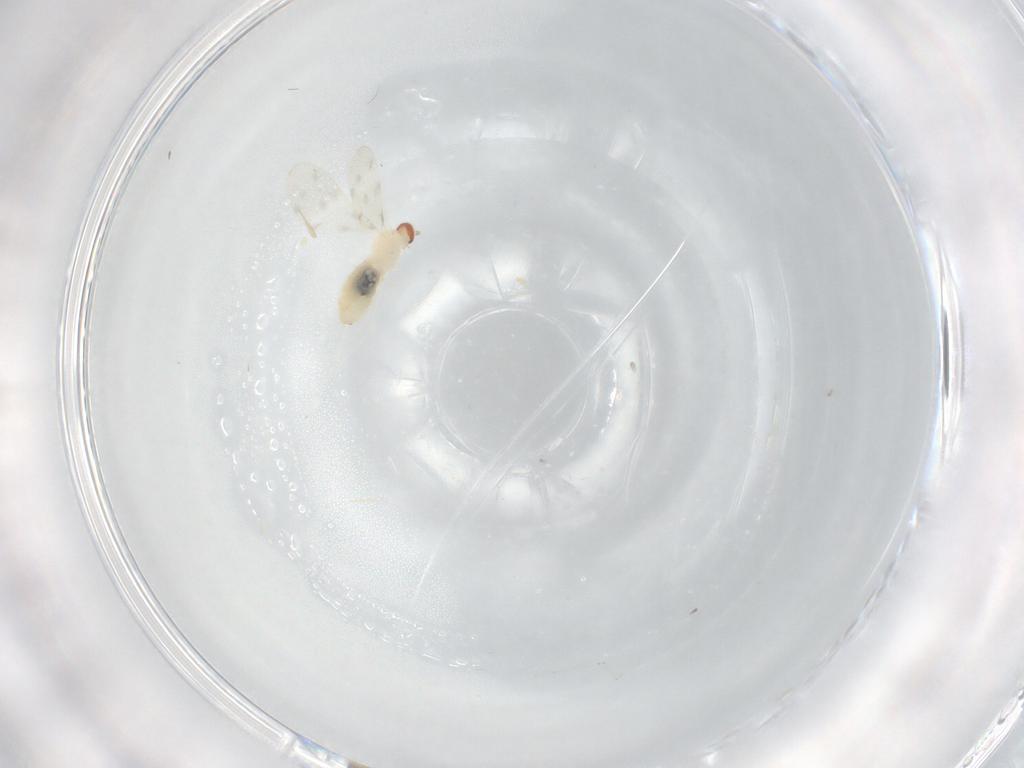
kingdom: Animalia
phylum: Arthropoda
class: Insecta
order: Diptera
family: Cecidomyiidae
